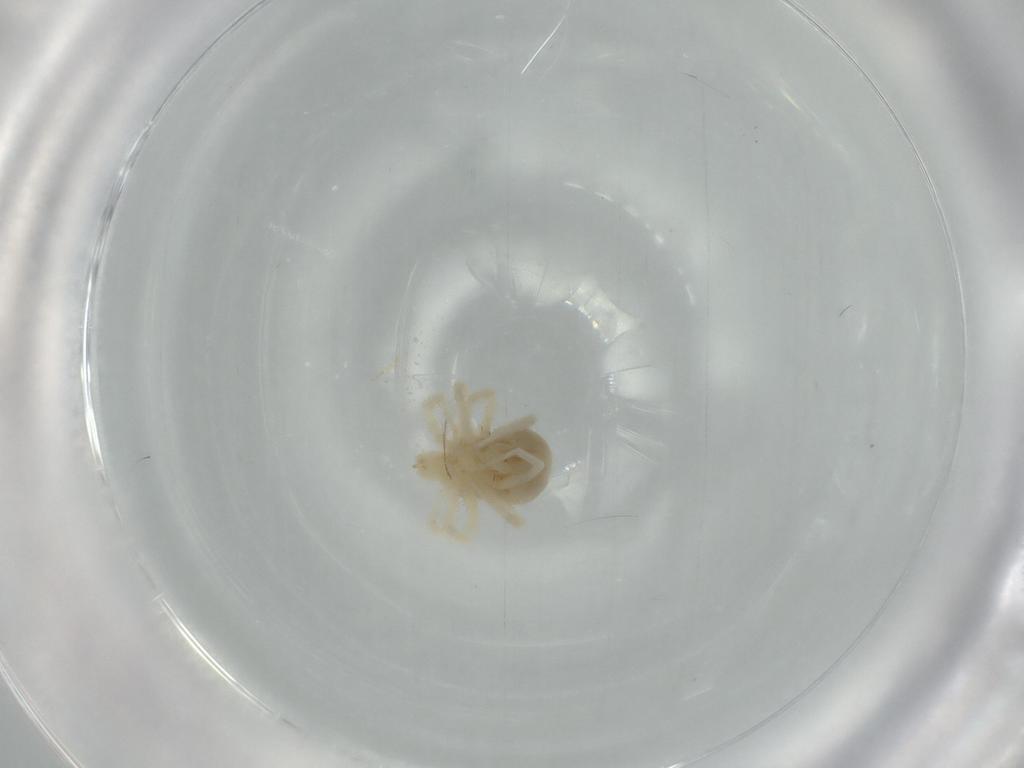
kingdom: Animalia
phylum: Arthropoda
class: Arachnida
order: Trombidiformes
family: Anystidae
